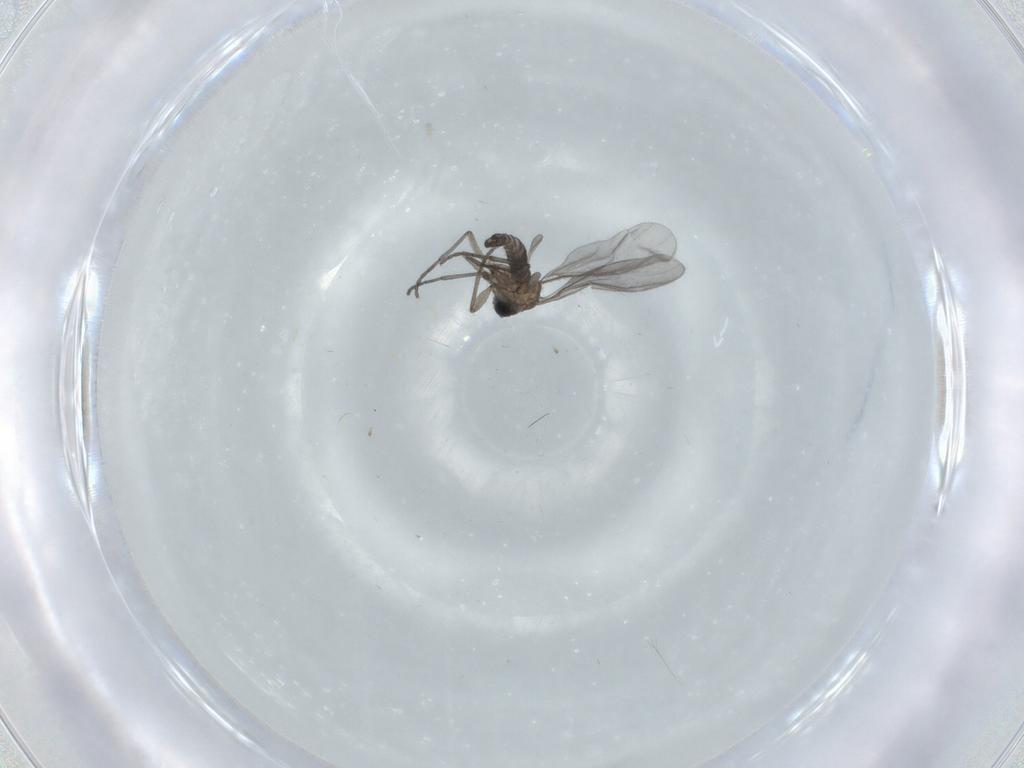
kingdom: Animalia
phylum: Arthropoda
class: Insecta
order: Diptera
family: Sciaridae
